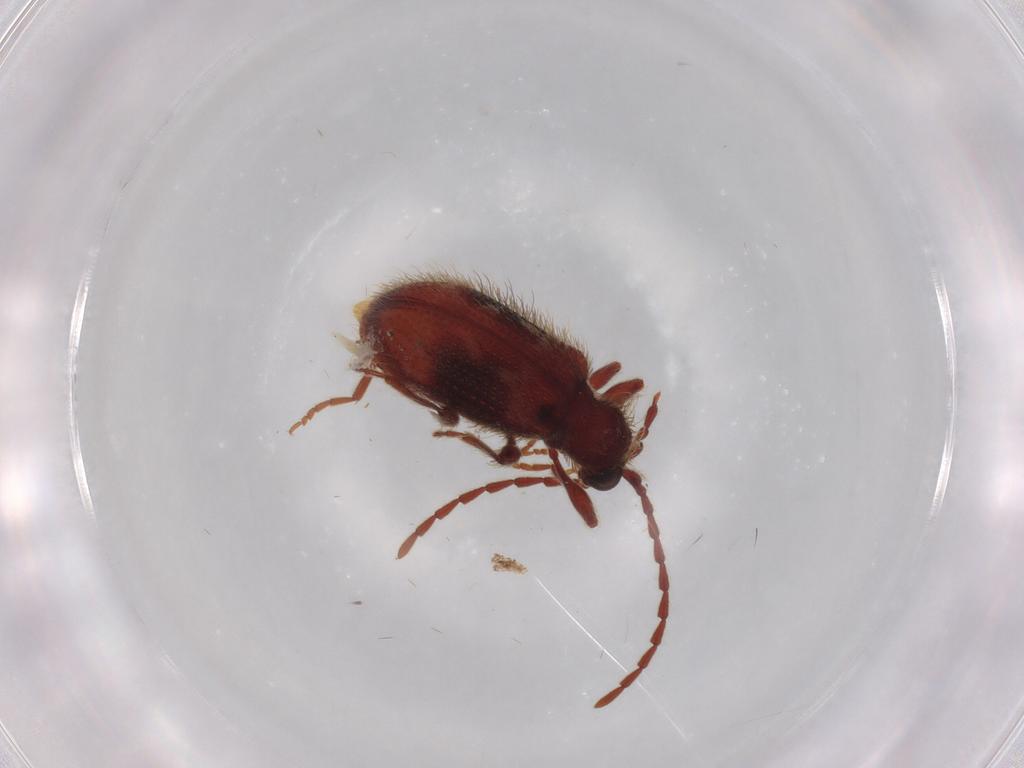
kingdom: Animalia
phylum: Arthropoda
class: Insecta
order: Coleoptera
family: Ptinidae
